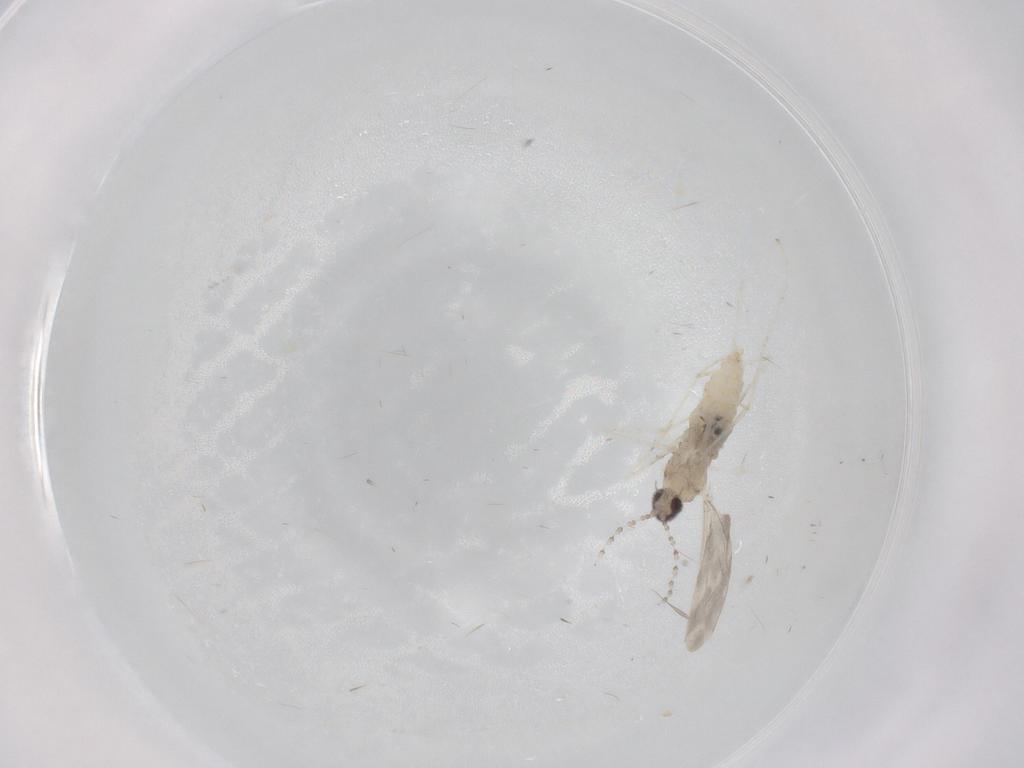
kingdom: Animalia
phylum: Arthropoda
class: Insecta
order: Diptera
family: Cecidomyiidae
